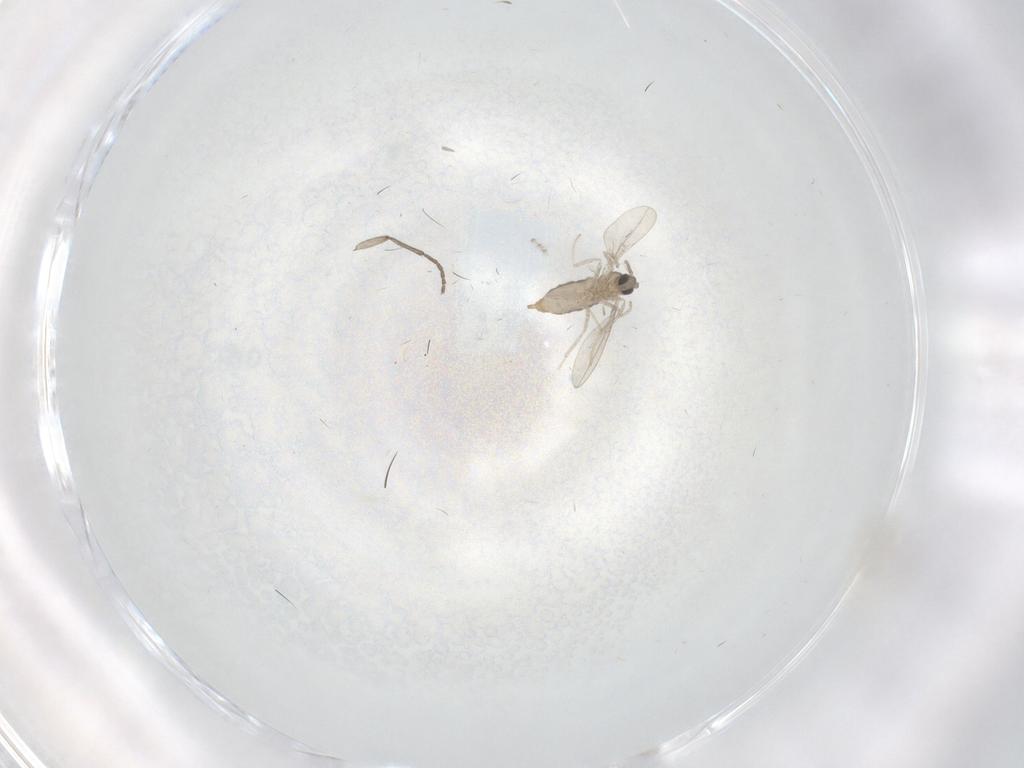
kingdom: Animalia
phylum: Arthropoda
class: Insecta
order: Diptera
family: Sciaridae
